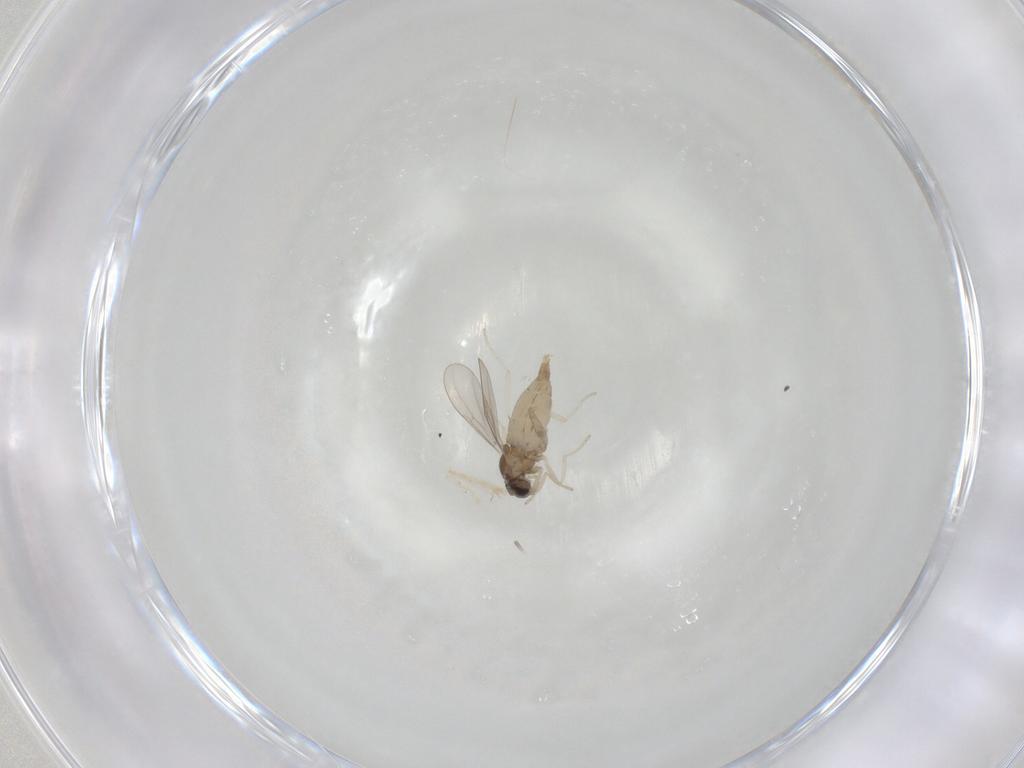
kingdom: Animalia
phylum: Arthropoda
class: Insecta
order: Diptera
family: Cecidomyiidae
